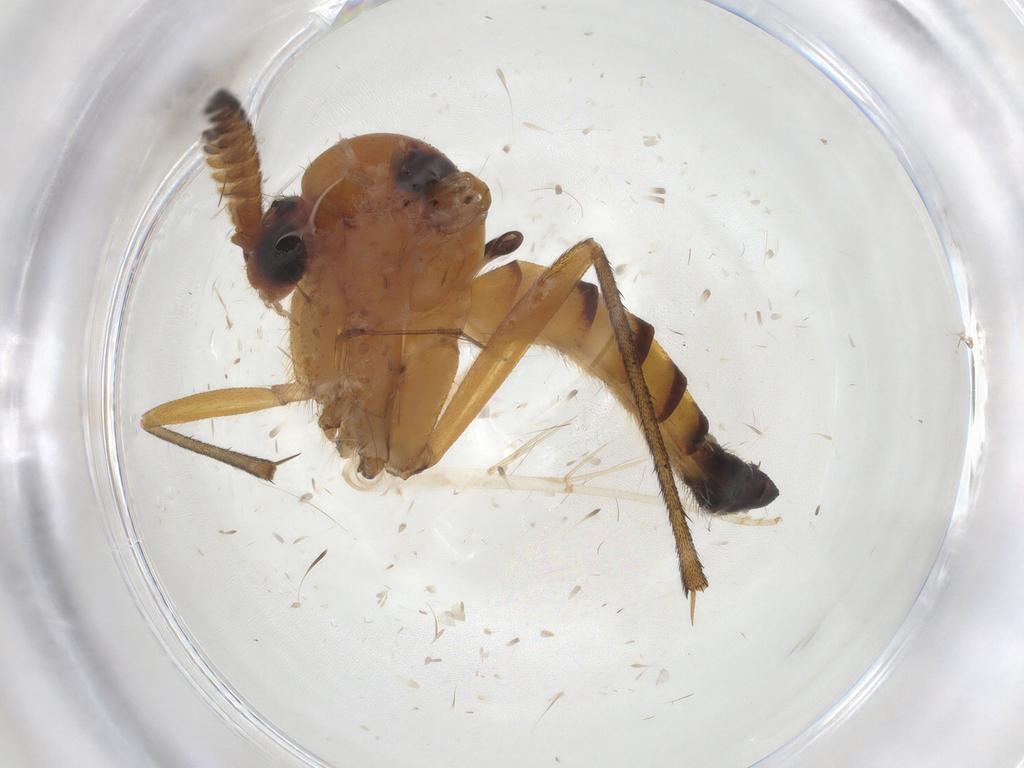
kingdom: Animalia
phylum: Arthropoda
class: Insecta
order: Diptera
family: Mycetophilidae
